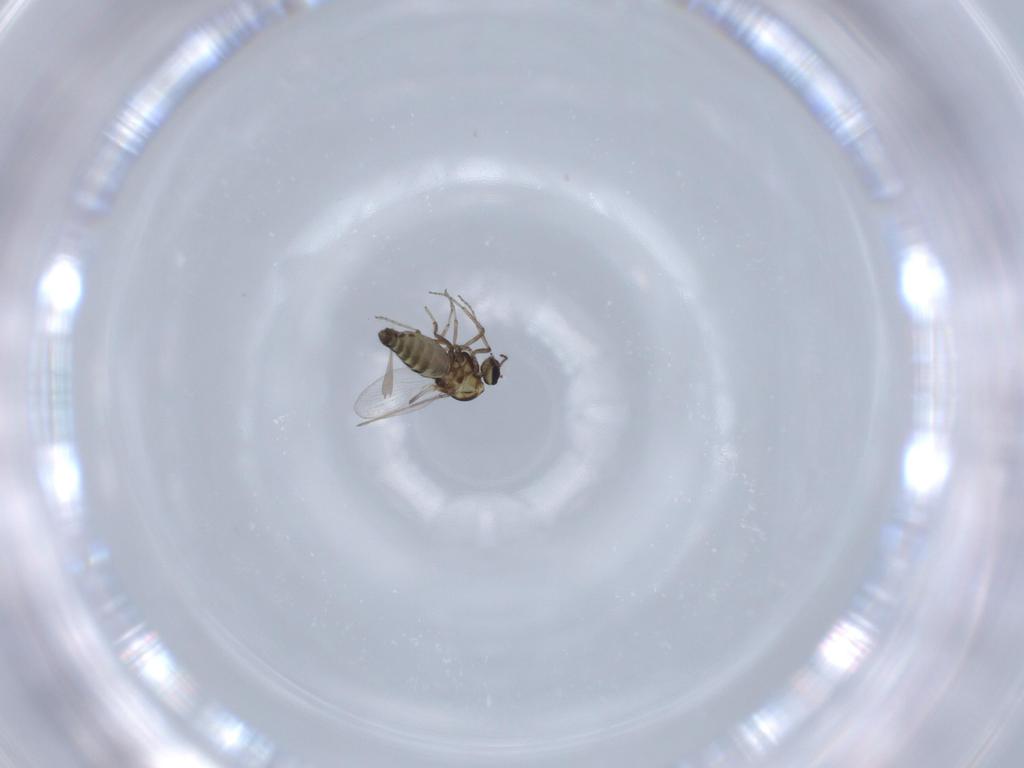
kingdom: Animalia
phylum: Arthropoda
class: Insecta
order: Diptera
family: Ceratopogonidae
